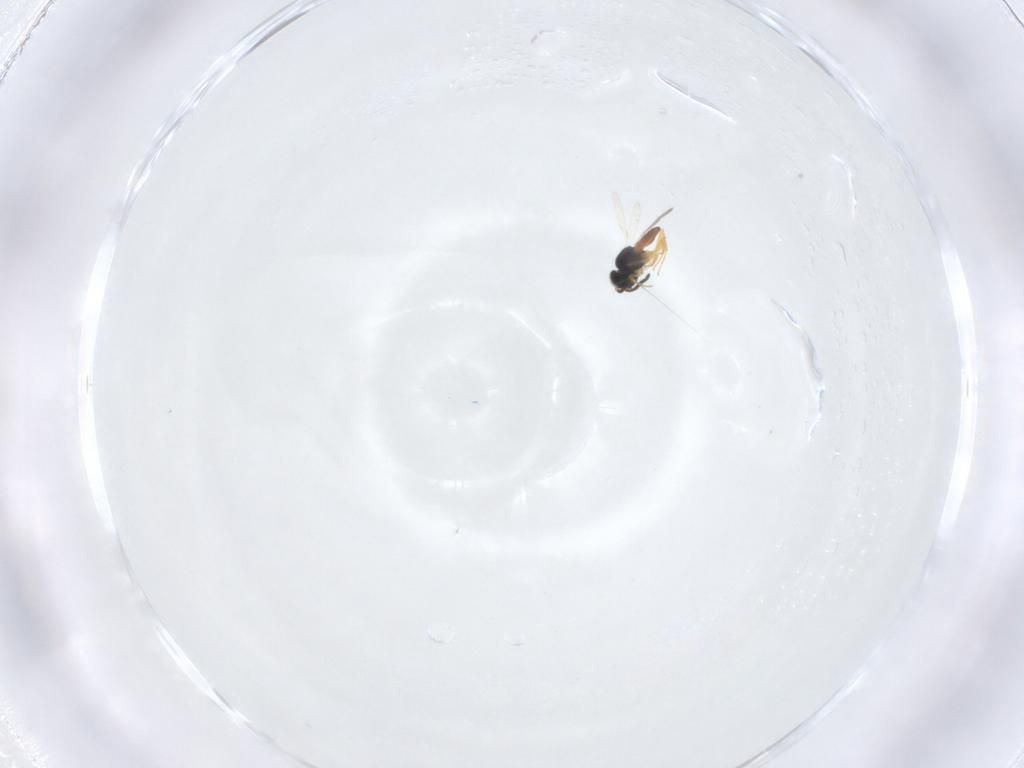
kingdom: Animalia
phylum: Arthropoda
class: Insecta
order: Hymenoptera
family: Scelionidae
